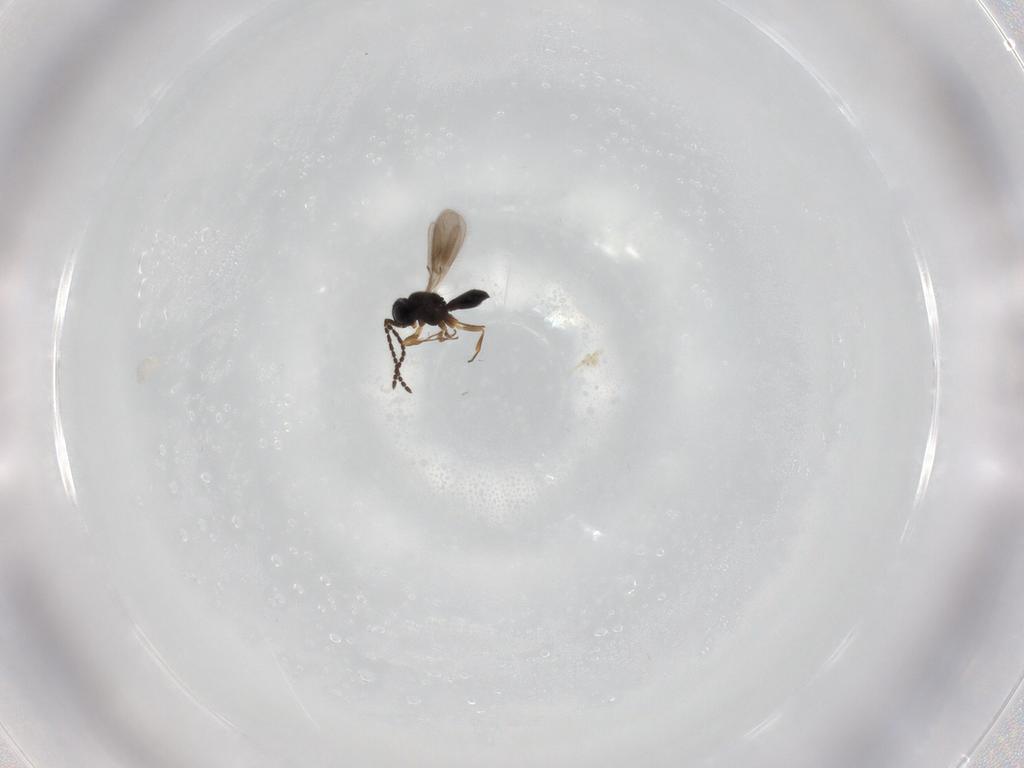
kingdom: Animalia
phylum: Arthropoda
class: Insecta
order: Hymenoptera
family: Scelionidae
